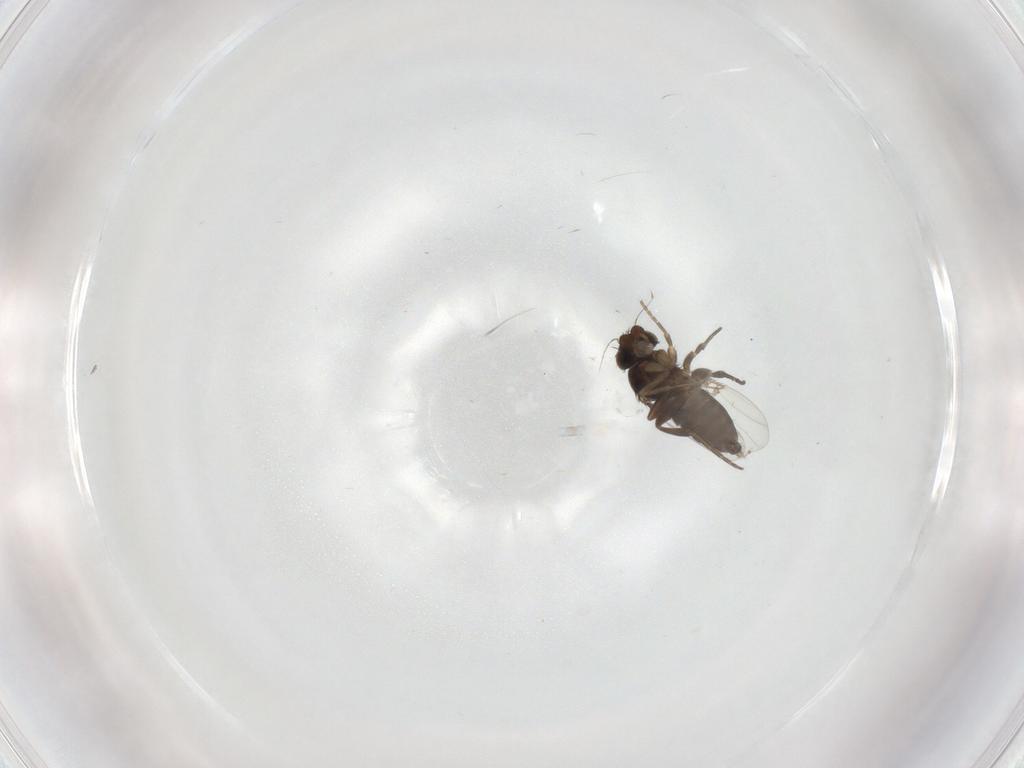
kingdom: Animalia
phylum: Arthropoda
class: Insecta
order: Diptera
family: Phoridae
